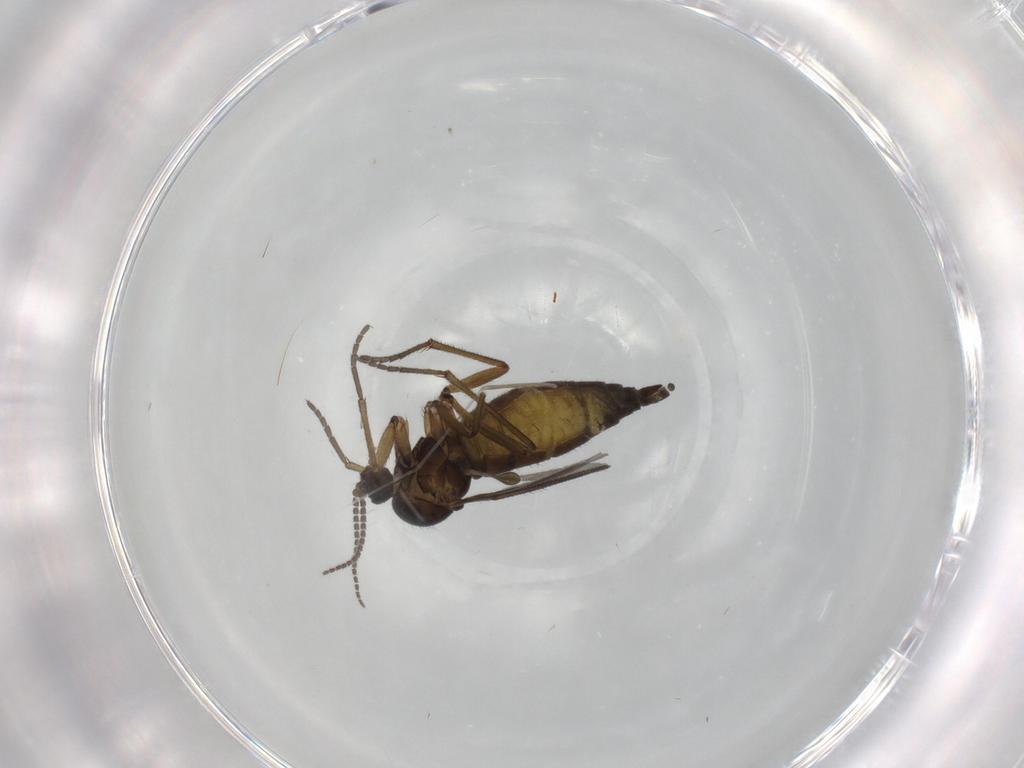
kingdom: Animalia
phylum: Arthropoda
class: Insecta
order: Diptera
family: Sciaridae
